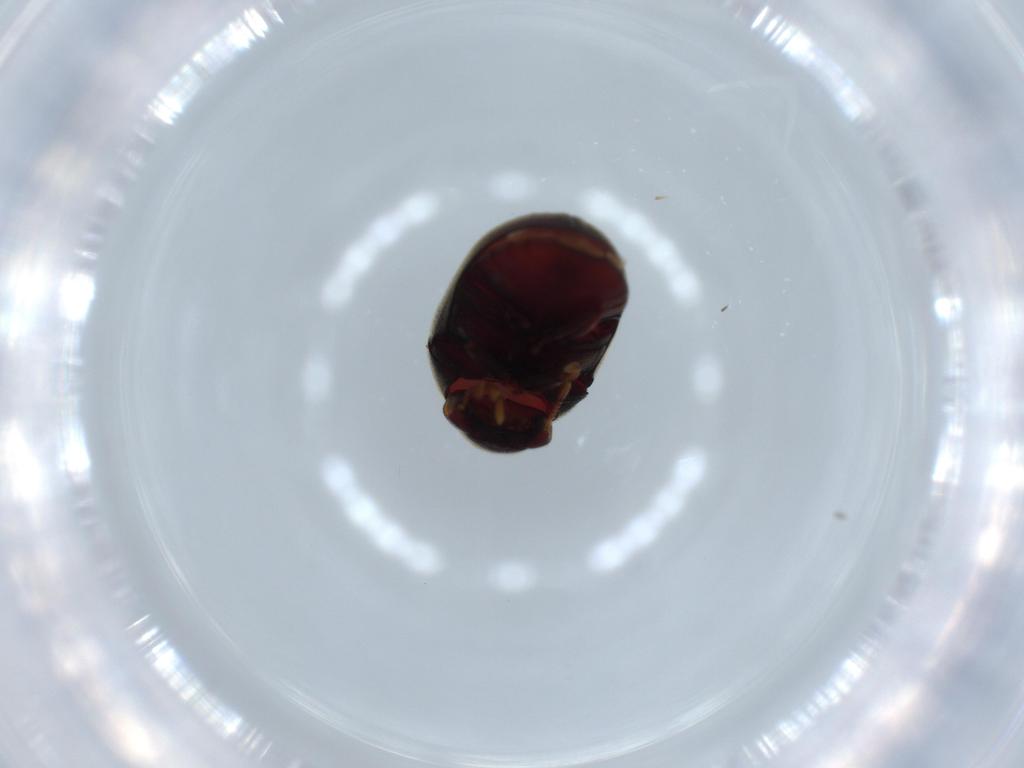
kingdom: Animalia
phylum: Arthropoda
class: Insecta
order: Coleoptera
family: Ptinidae
